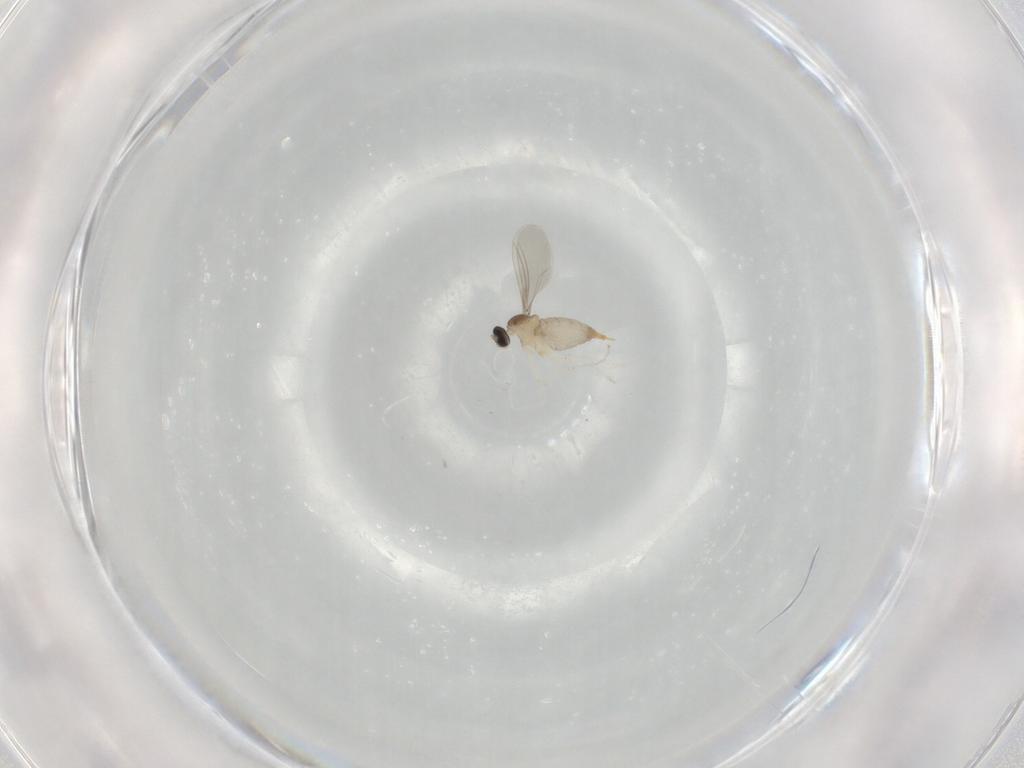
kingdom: Animalia
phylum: Arthropoda
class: Insecta
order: Diptera
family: Cecidomyiidae
